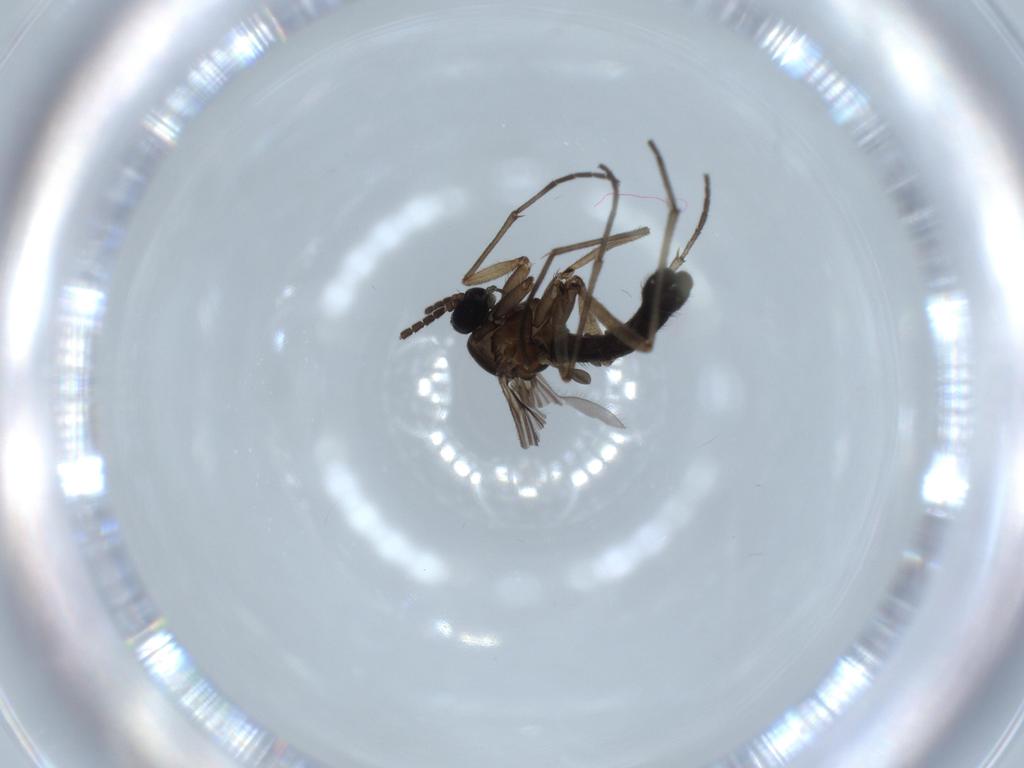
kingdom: Animalia
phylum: Arthropoda
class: Insecta
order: Diptera
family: Sciaridae
